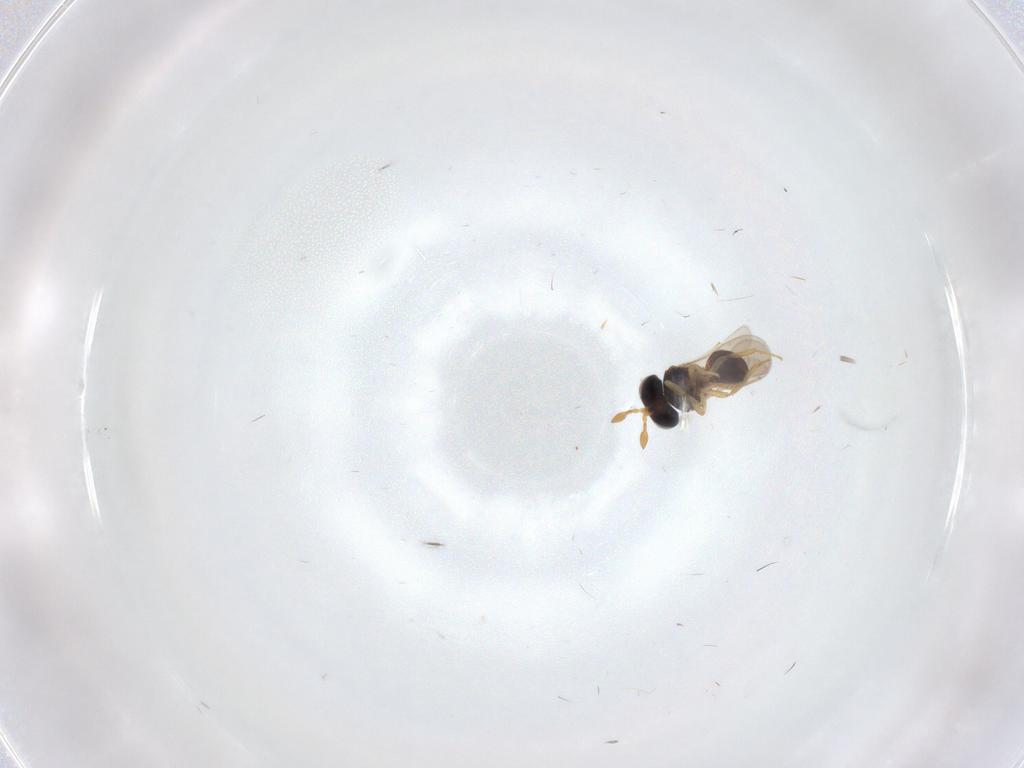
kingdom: Animalia
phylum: Arthropoda
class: Insecta
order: Hymenoptera
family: Scelionidae
